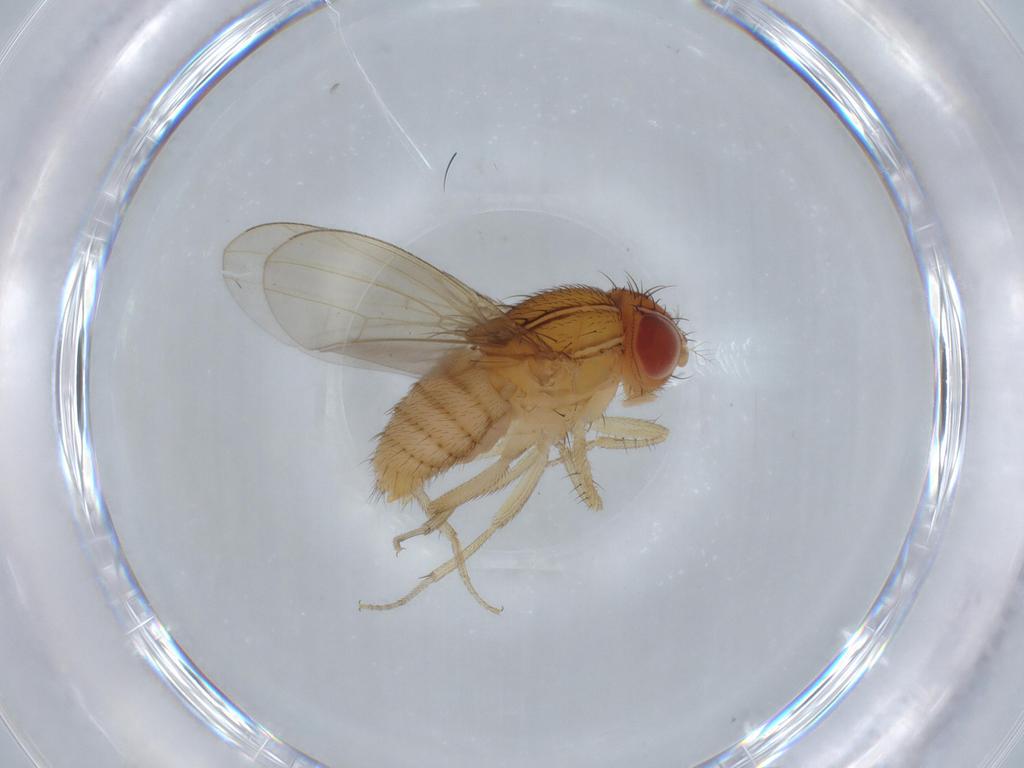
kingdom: Animalia
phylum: Arthropoda
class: Insecta
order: Diptera
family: Drosophilidae
